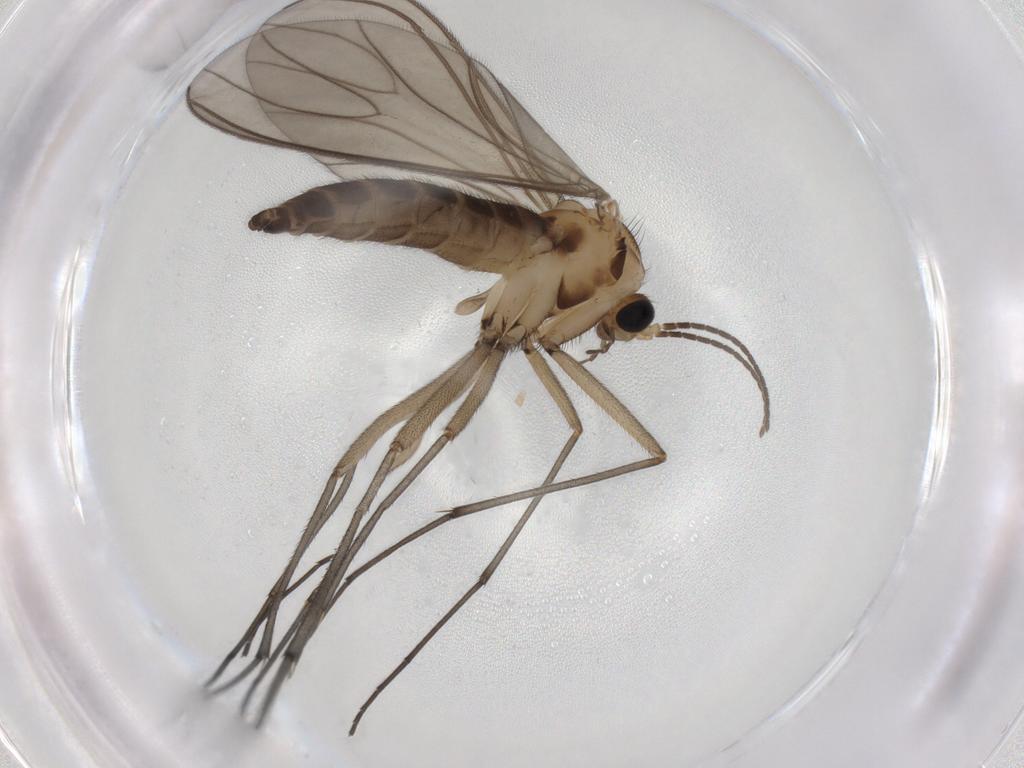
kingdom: Animalia
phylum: Arthropoda
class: Insecta
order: Diptera
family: Sciaridae
